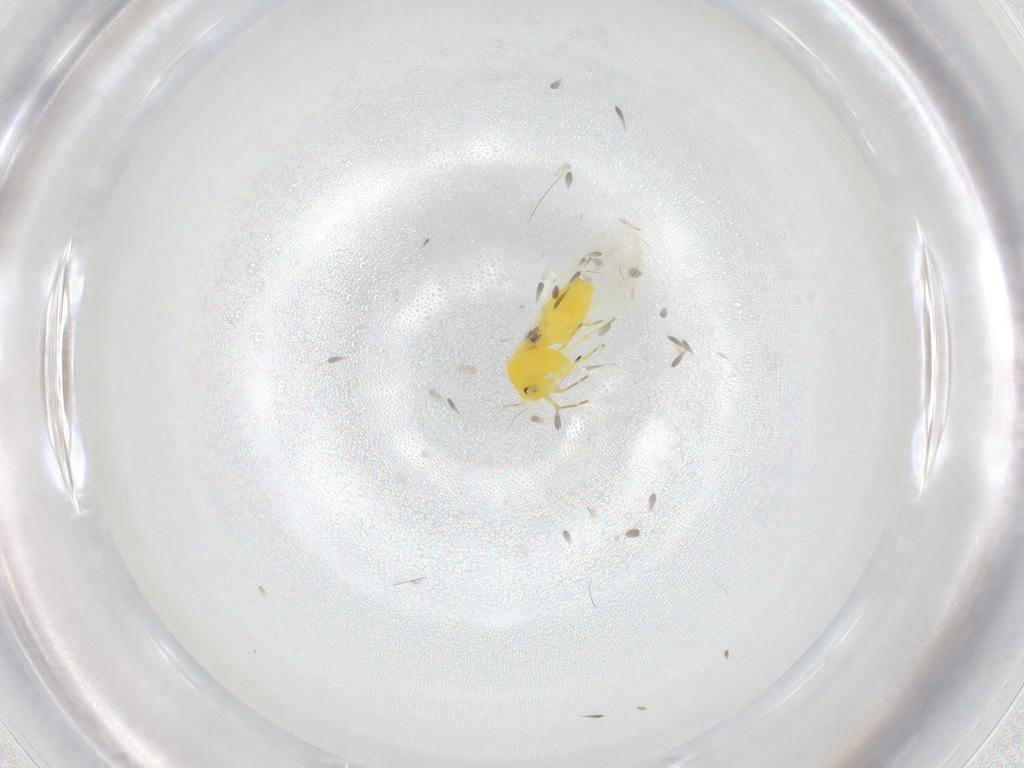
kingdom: Animalia
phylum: Arthropoda
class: Insecta
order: Hemiptera
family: Aleyrodidae
